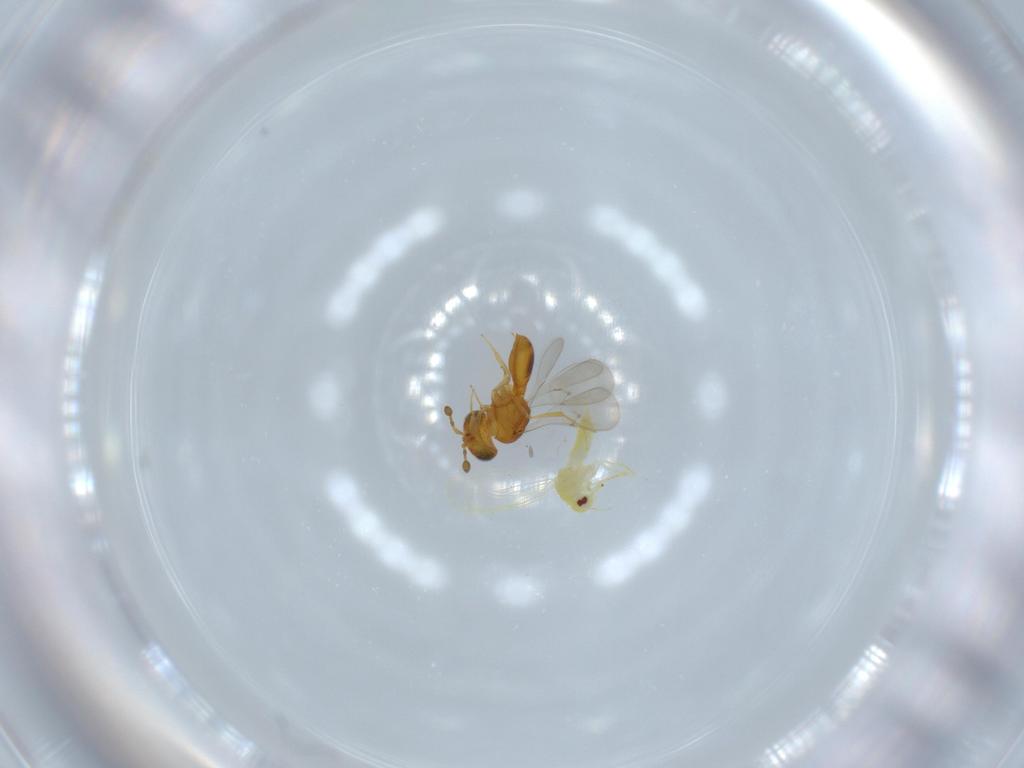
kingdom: Animalia
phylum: Arthropoda
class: Insecta
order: Hymenoptera
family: Scelionidae
